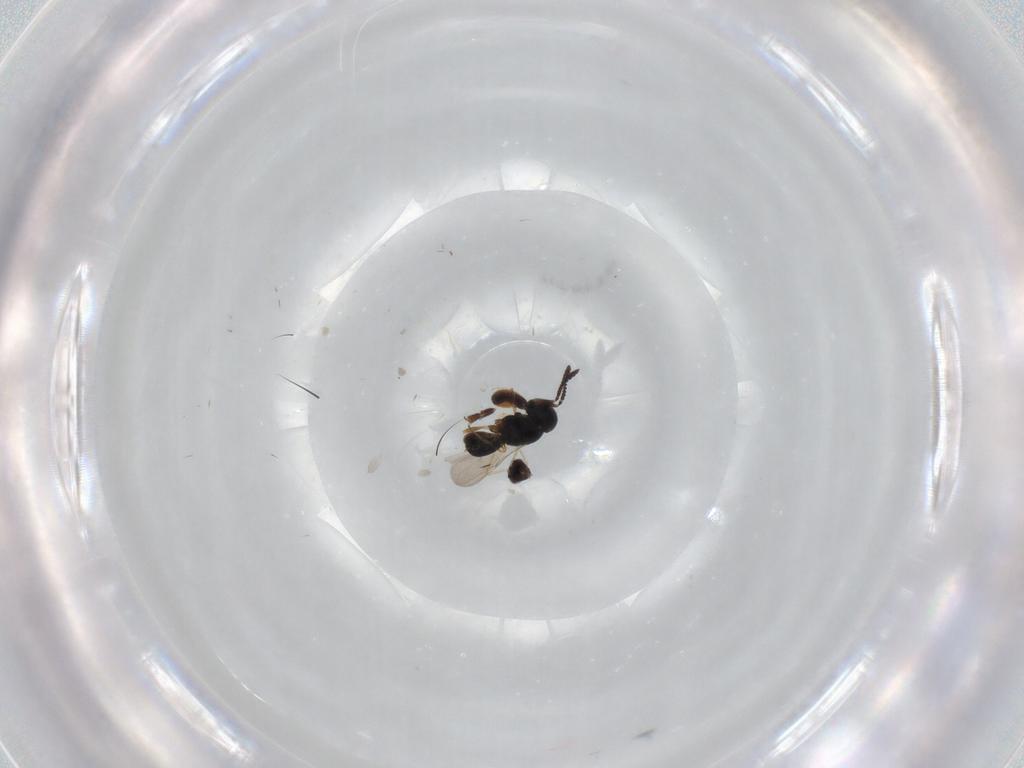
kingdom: Animalia
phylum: Arthropoda
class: Insecta
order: Hymenoptera
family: Scelionidae
